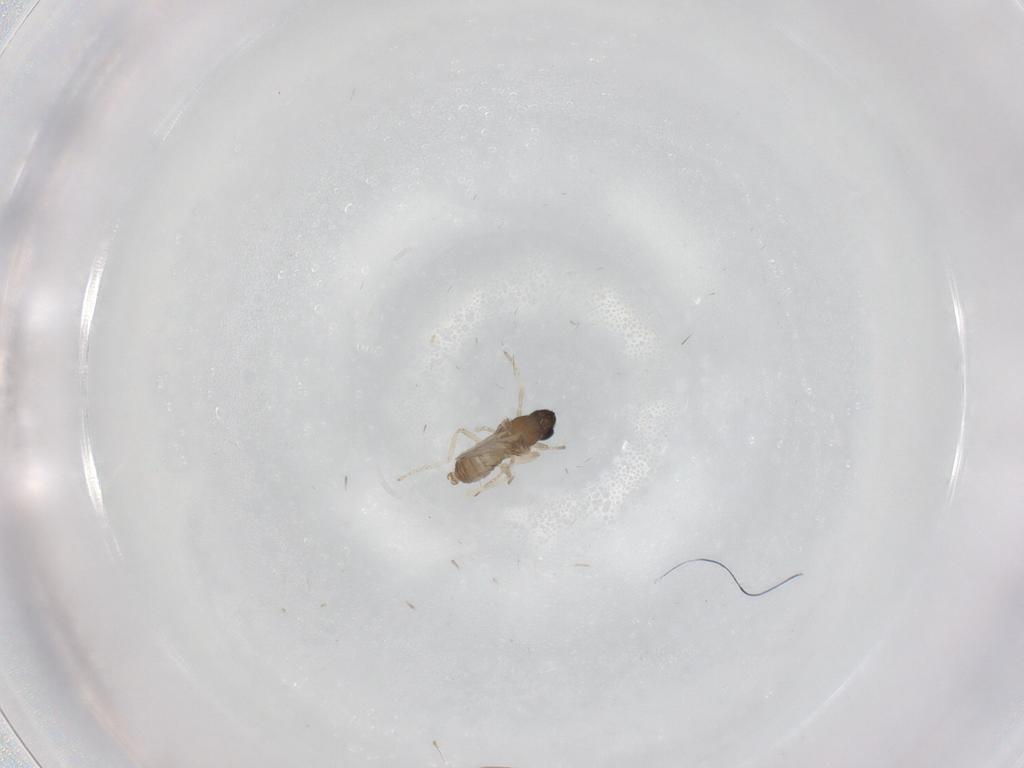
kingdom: Animalia
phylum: Arthropoda
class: Insecta
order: Diptera
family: Cecidomyiidae
